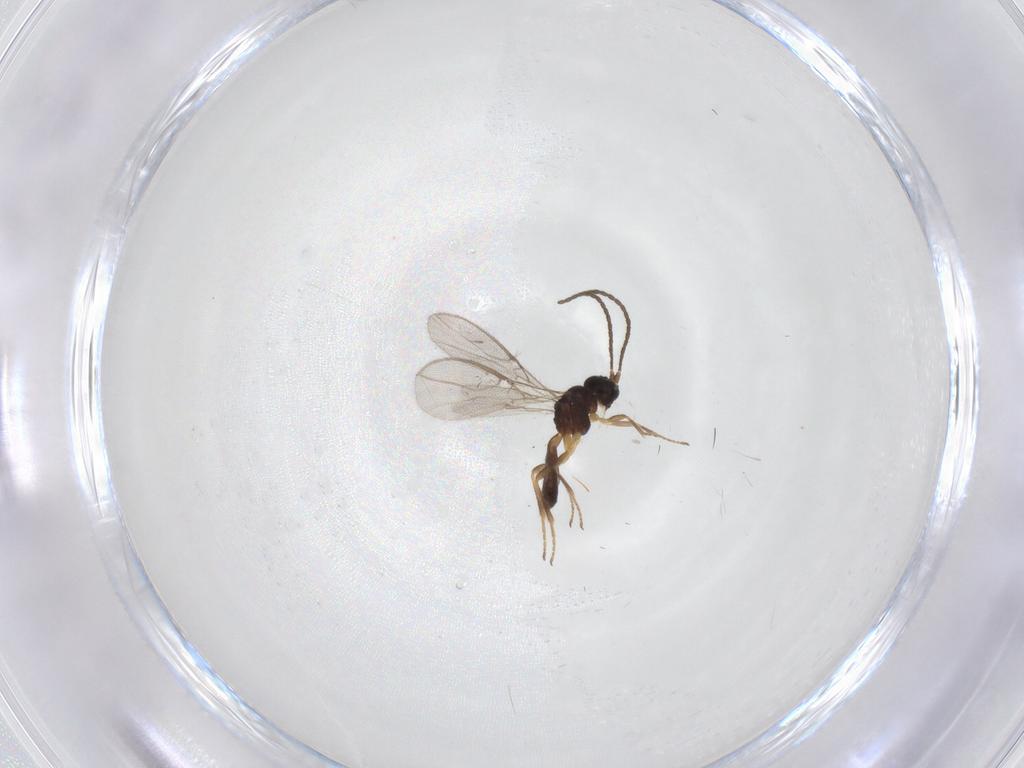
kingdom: Animalia
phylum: Arthropoda
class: Insecta
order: Hymenoptera
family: Braconidae
